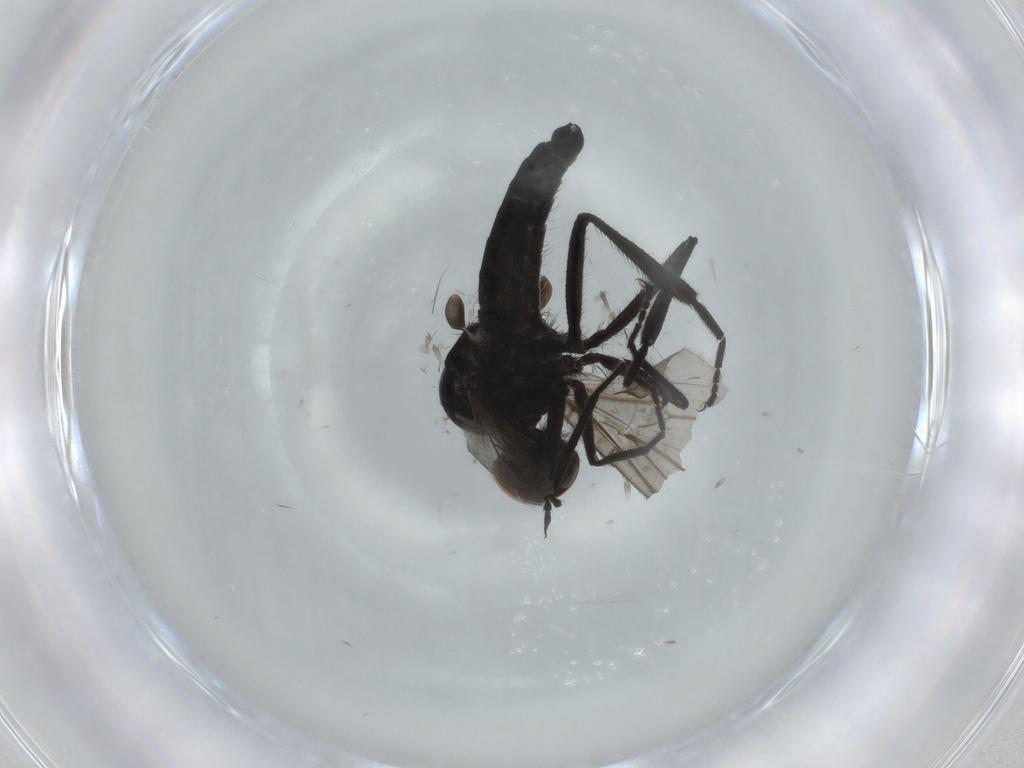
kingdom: Animalia
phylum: Arthropoda
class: Insecta
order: Diptera
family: Hybotidae
